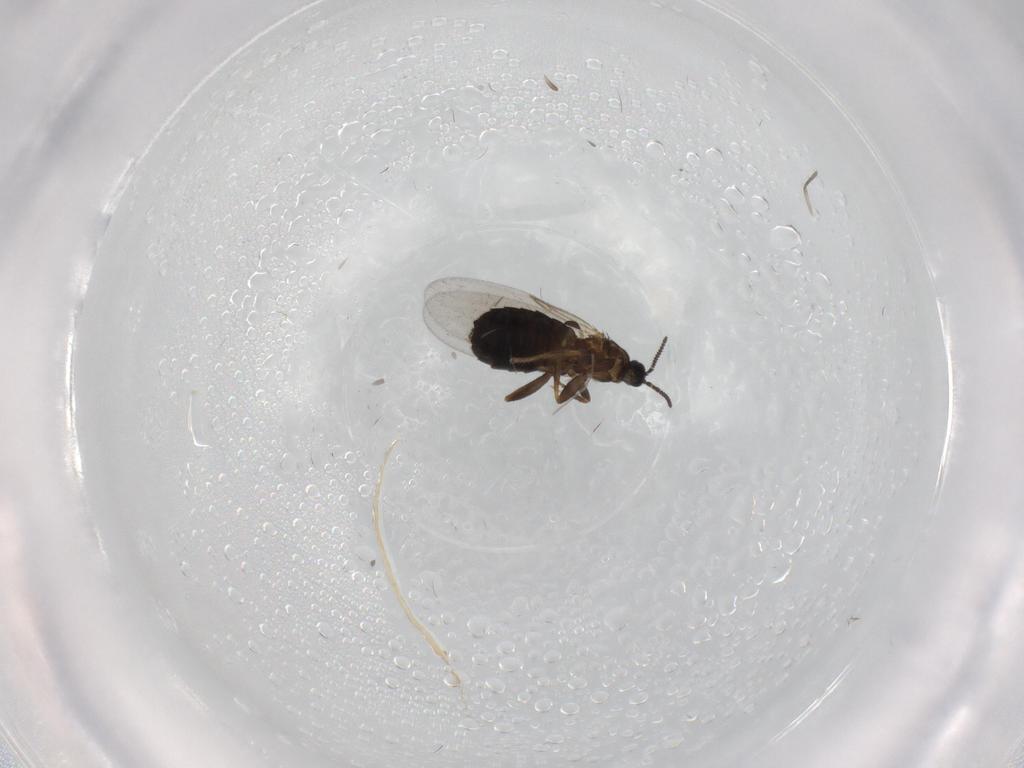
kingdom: Animalia
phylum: Arthropoda
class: Insecta
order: Diptera
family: Scatopsidae
